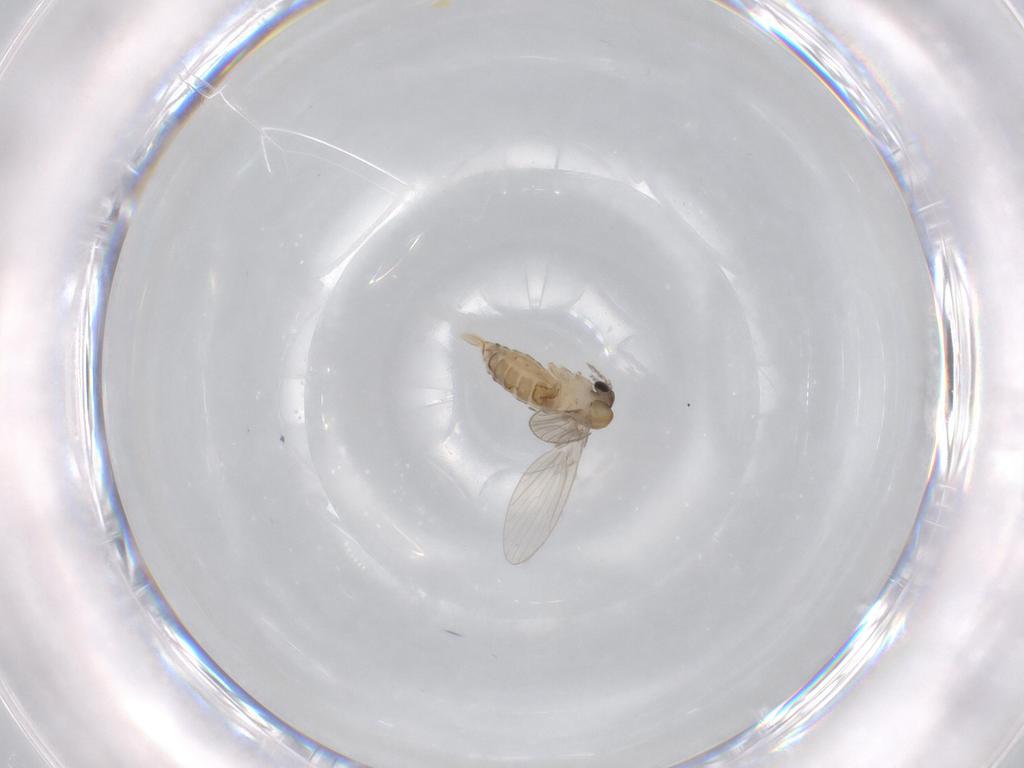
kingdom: Animalia
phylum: Arthropoda
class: Insecta
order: Diptera
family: Psychodidae
